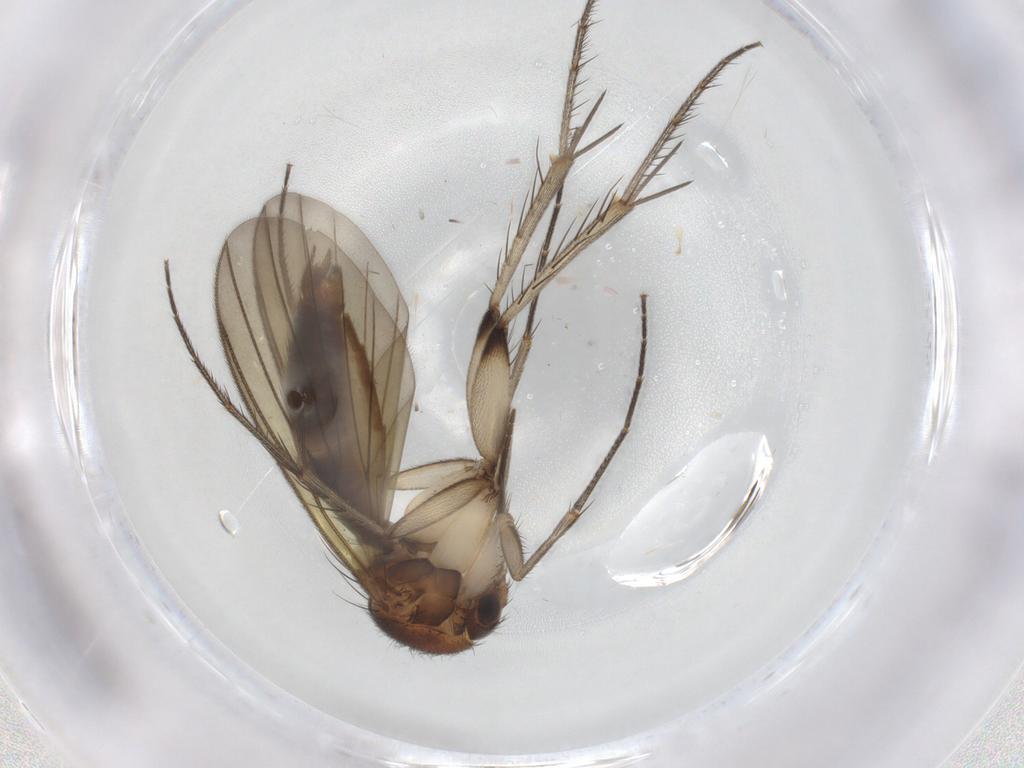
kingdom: Animalia
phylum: Arthropoda
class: Insecta
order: Diptera
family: Mycetophilidae
